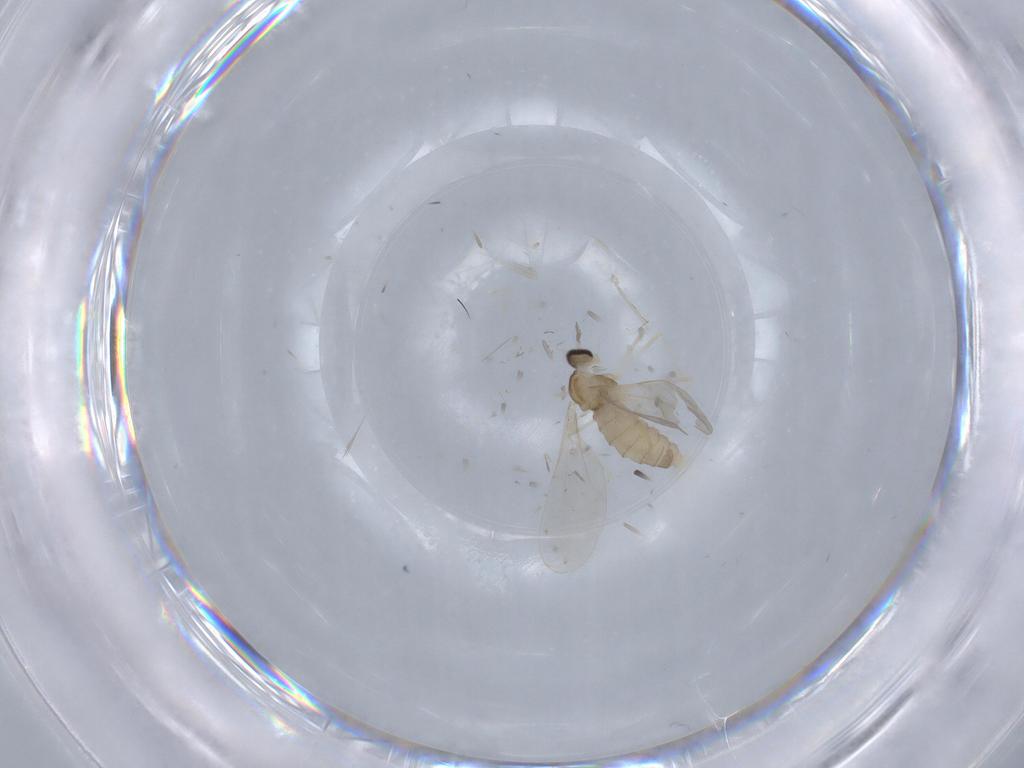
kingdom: Animalia
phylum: Arthropoda
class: Insecta
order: Diptera
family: Cecidomyiidae
